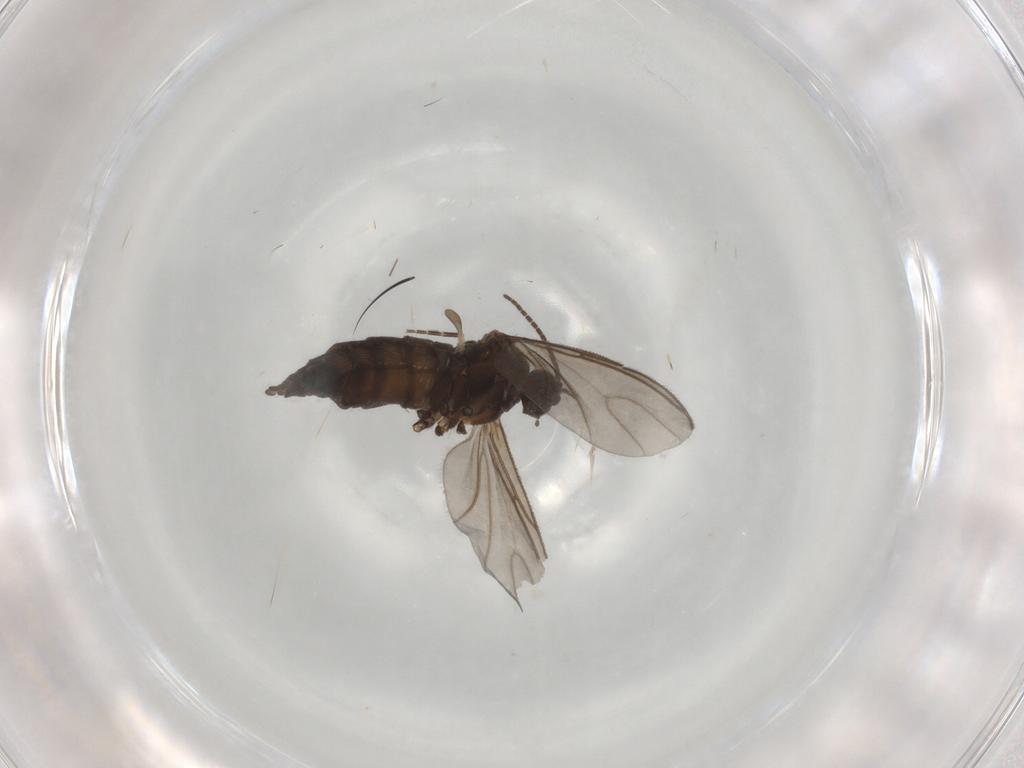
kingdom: Animalia
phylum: Arthropoda
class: Insecta
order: Diptera
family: Sciaridae
